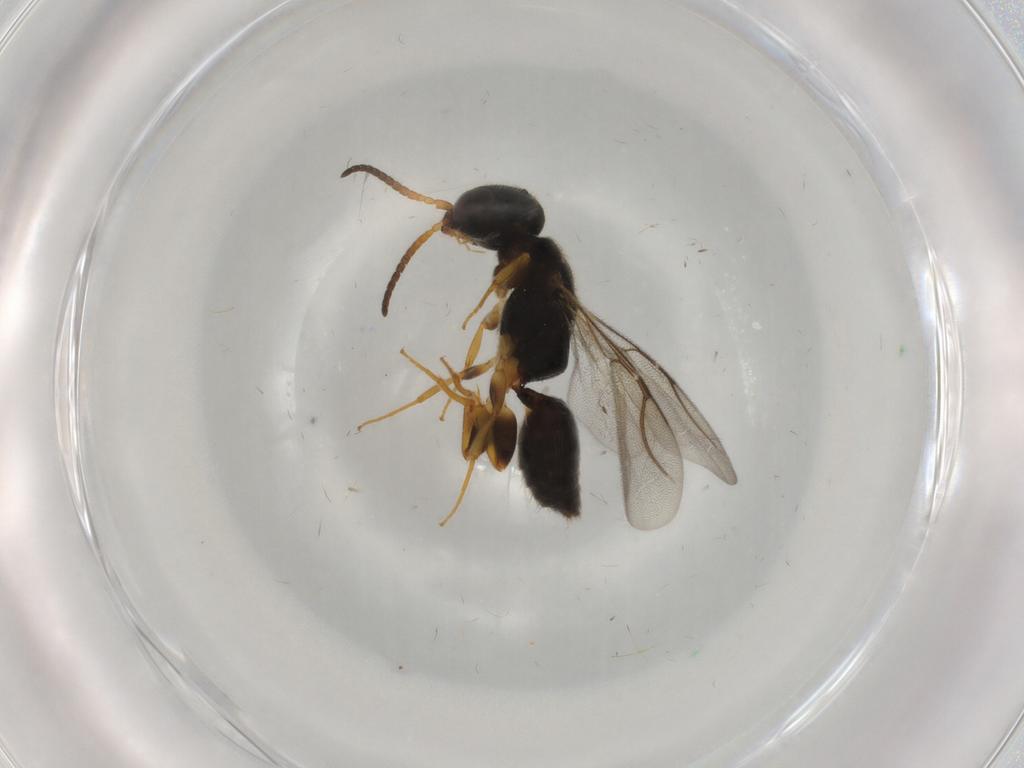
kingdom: Animalia
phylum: Arthropoda
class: Insecta
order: Hymenoptera
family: Bethylidae
